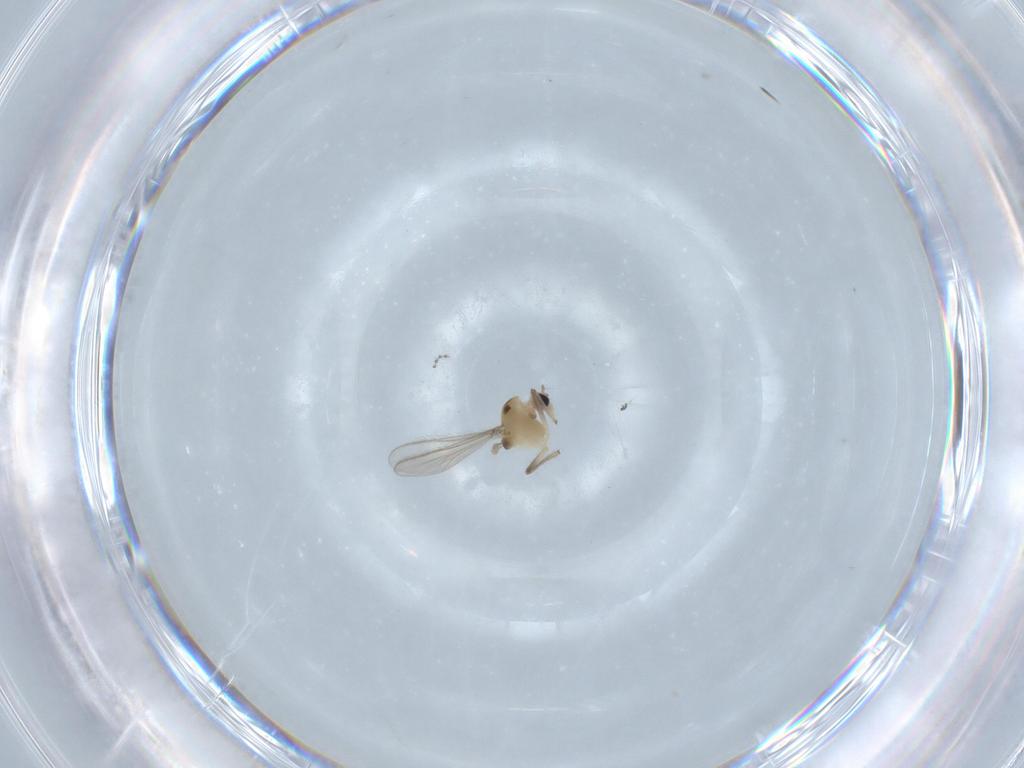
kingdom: Animalia
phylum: Arthropoda
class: Insecta
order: Diptera
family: Chironomidae
